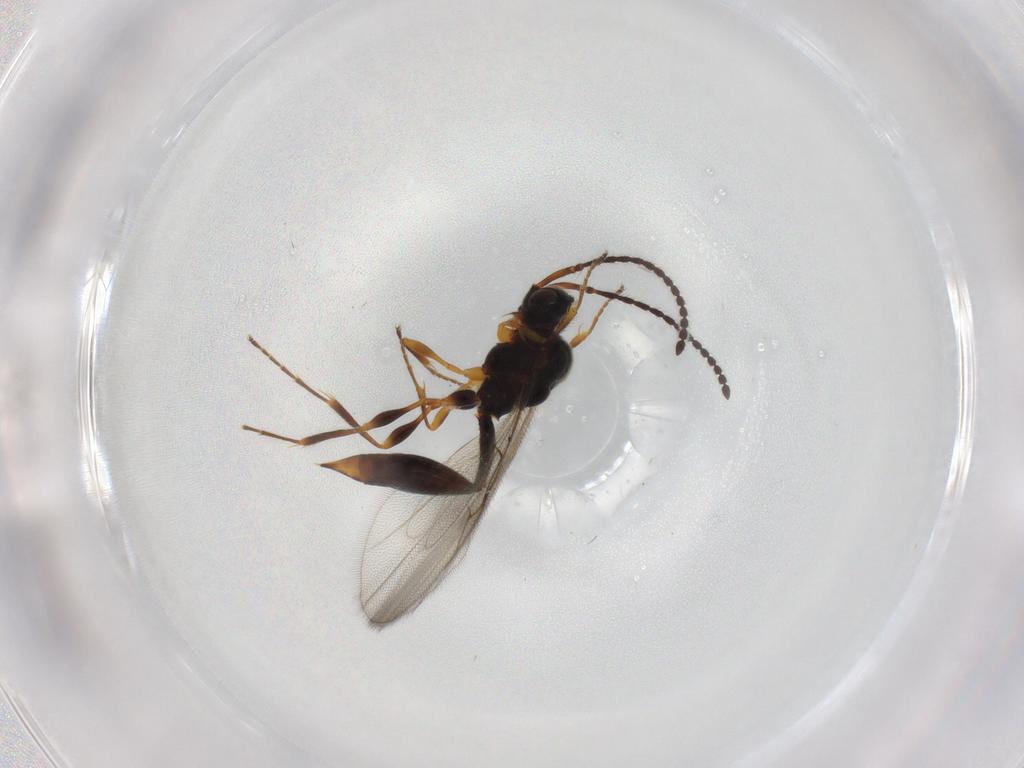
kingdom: Animalia
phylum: Arthropoda
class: Insecta
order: Hymenoptera
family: Diapriidae
